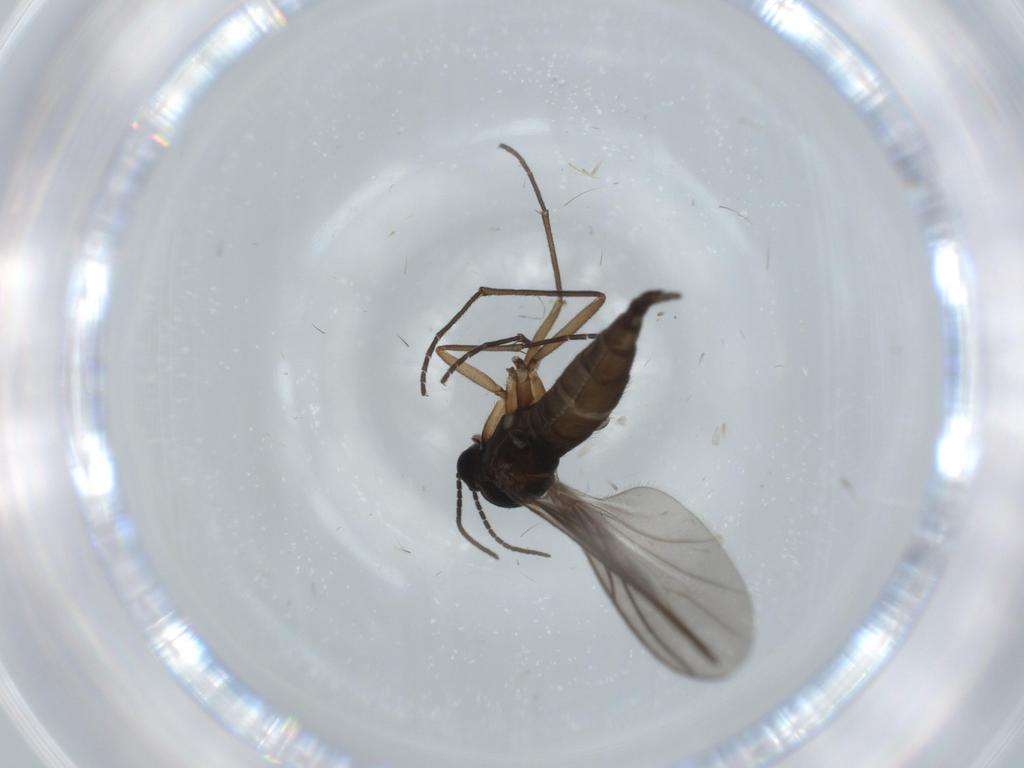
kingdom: Animalia
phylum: Arthropoda
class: Insecta
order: Diptera
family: Sciaridae
